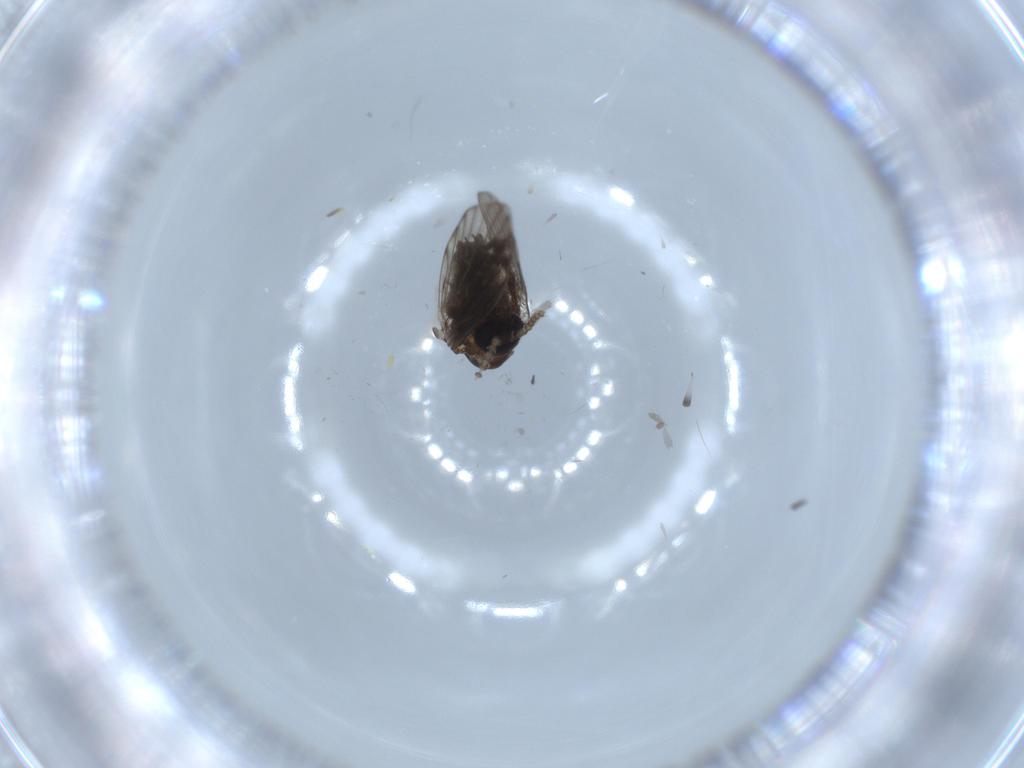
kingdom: Animalia
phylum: Arthropoda
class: Insecta
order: Diptera
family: Psychodidae
